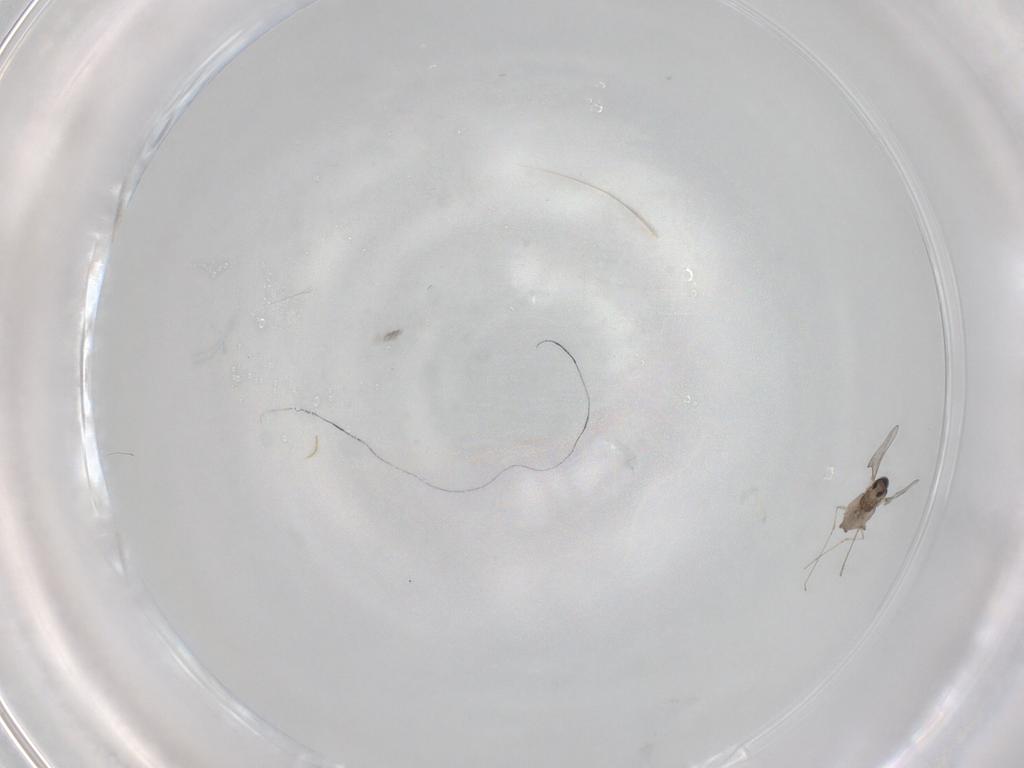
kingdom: Animalia
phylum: Arthropoda
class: Insecta
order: Diptera
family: Cecidomyiidae
